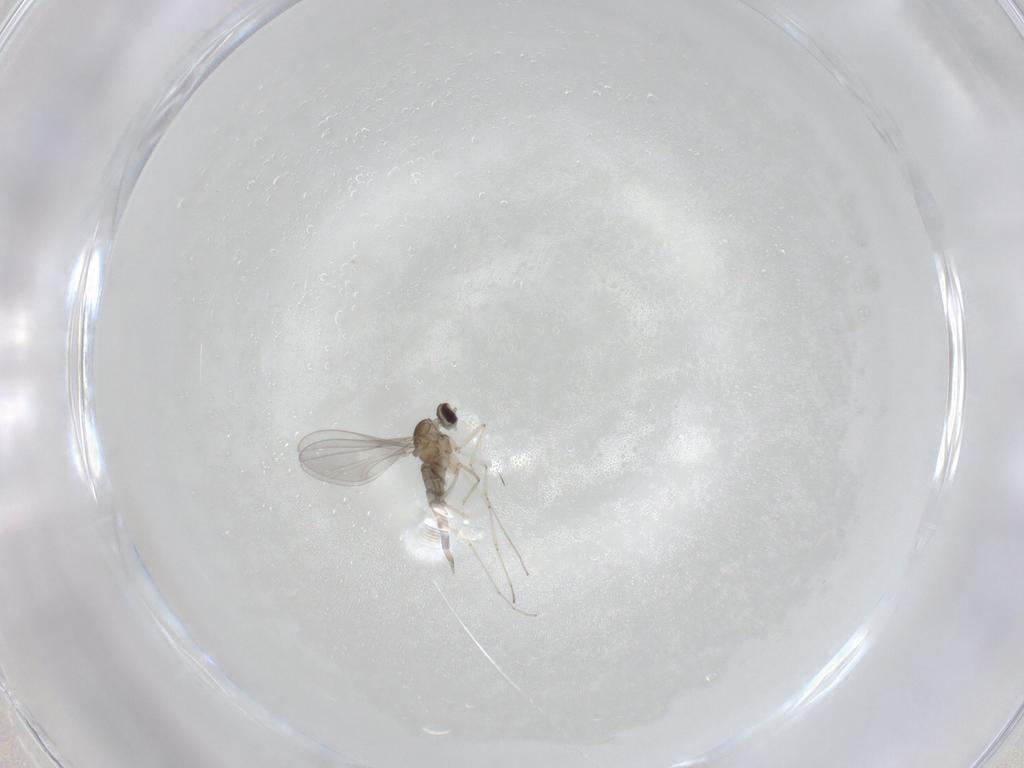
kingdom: Animalia
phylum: Arthropoda
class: Insecta
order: Diptera
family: Cecidomyiidae
